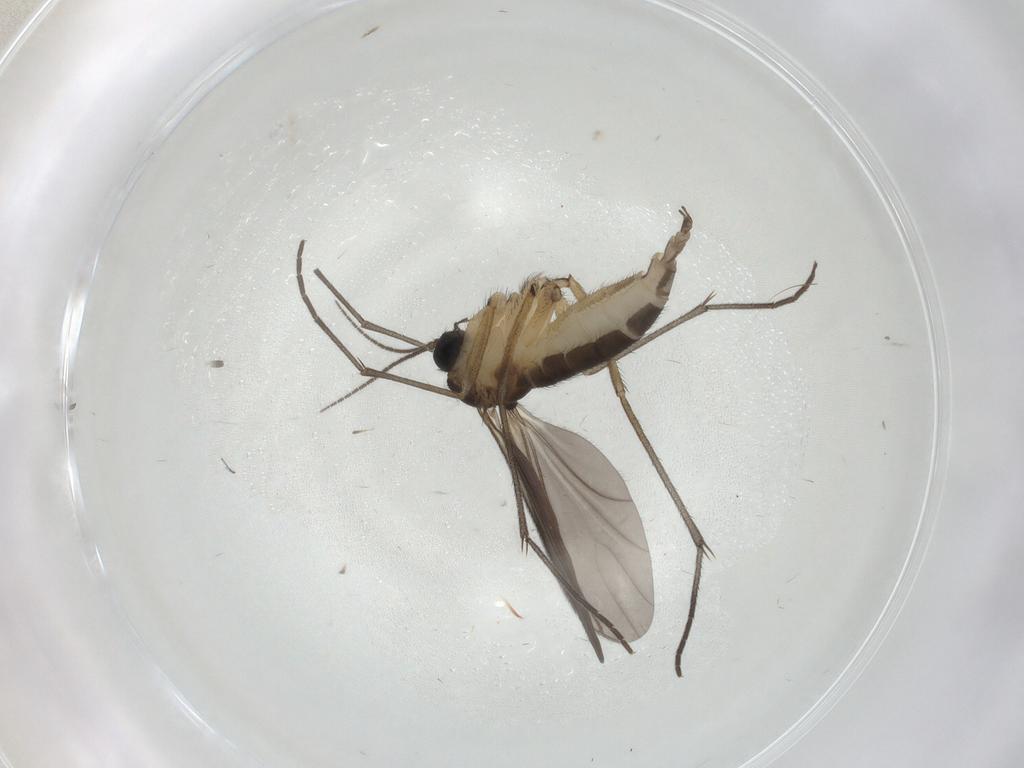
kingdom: Animalia
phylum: Arthropoda
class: Insecta
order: Diptera
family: Sciaridae
